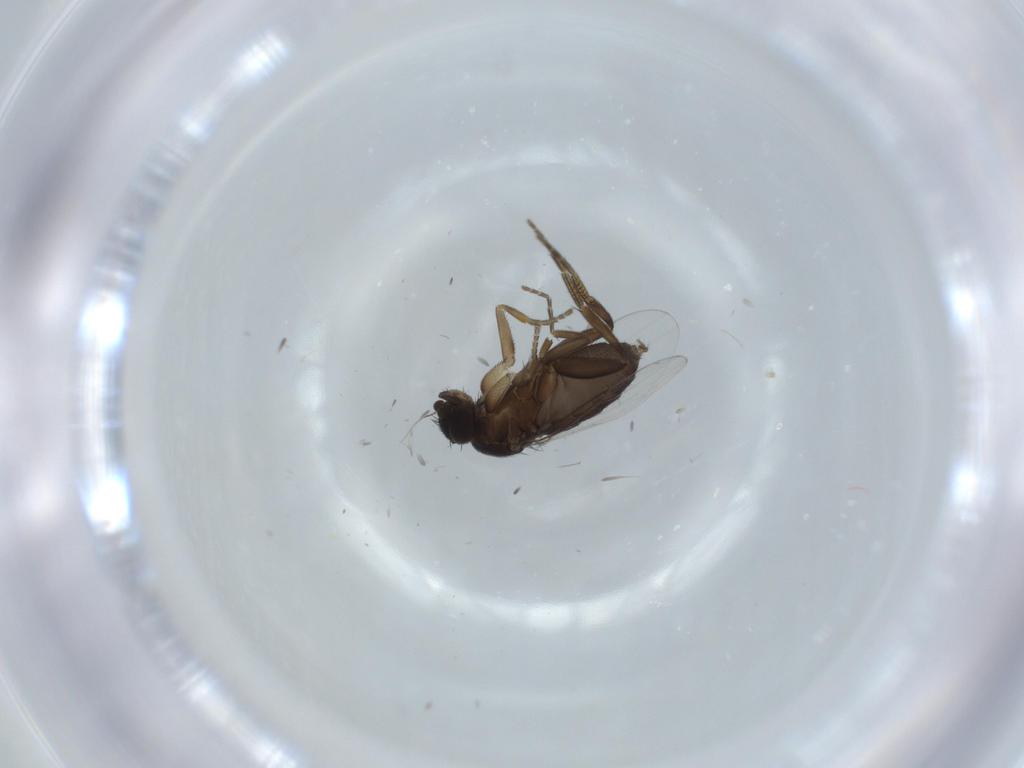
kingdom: Animalia
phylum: Arthropoda
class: Insecta
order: Diptera
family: Phoridae
